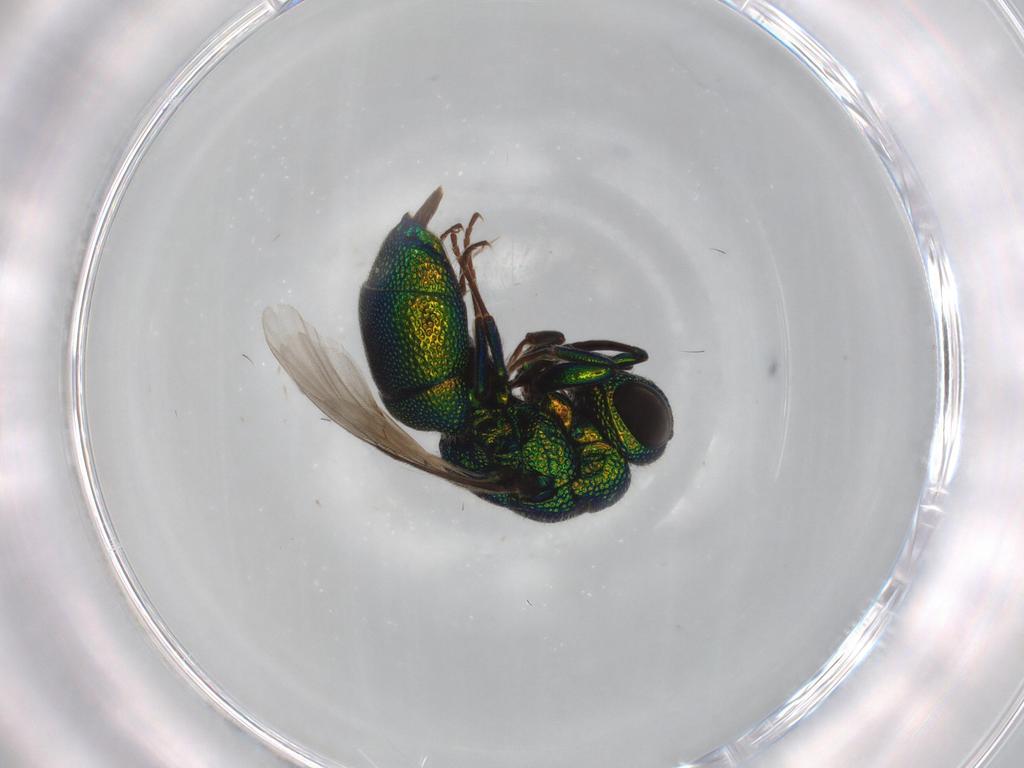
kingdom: Animalia
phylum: Arthropoda
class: Insecta
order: Hymenoptera
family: Chrysididae
